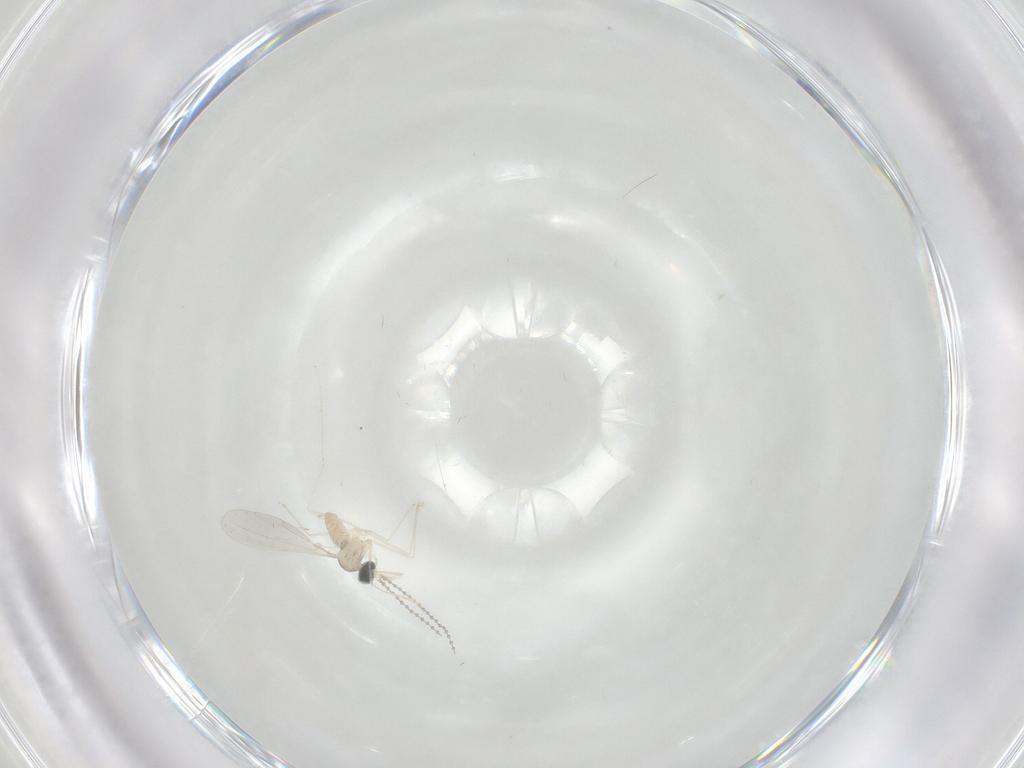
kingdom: Animalia
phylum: Arthropoda
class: Insecta
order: Diptera
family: Cecidomyiidae
